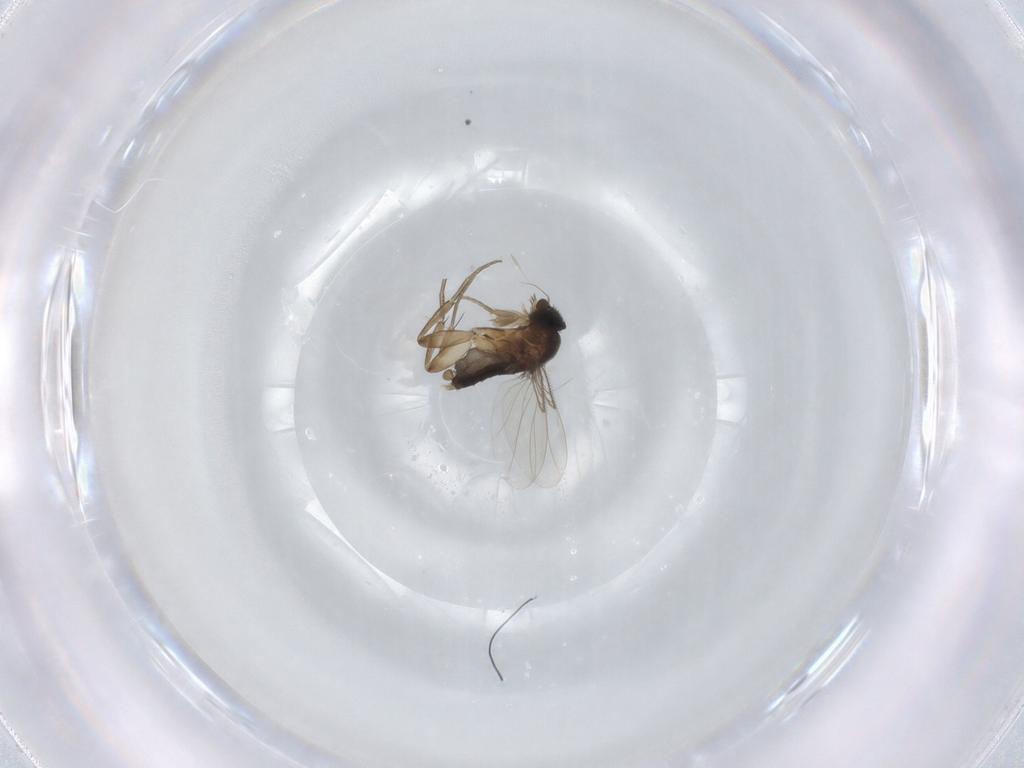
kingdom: Animalia
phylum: Arthropoda
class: Insecta
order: Diptera
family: Phoridae
